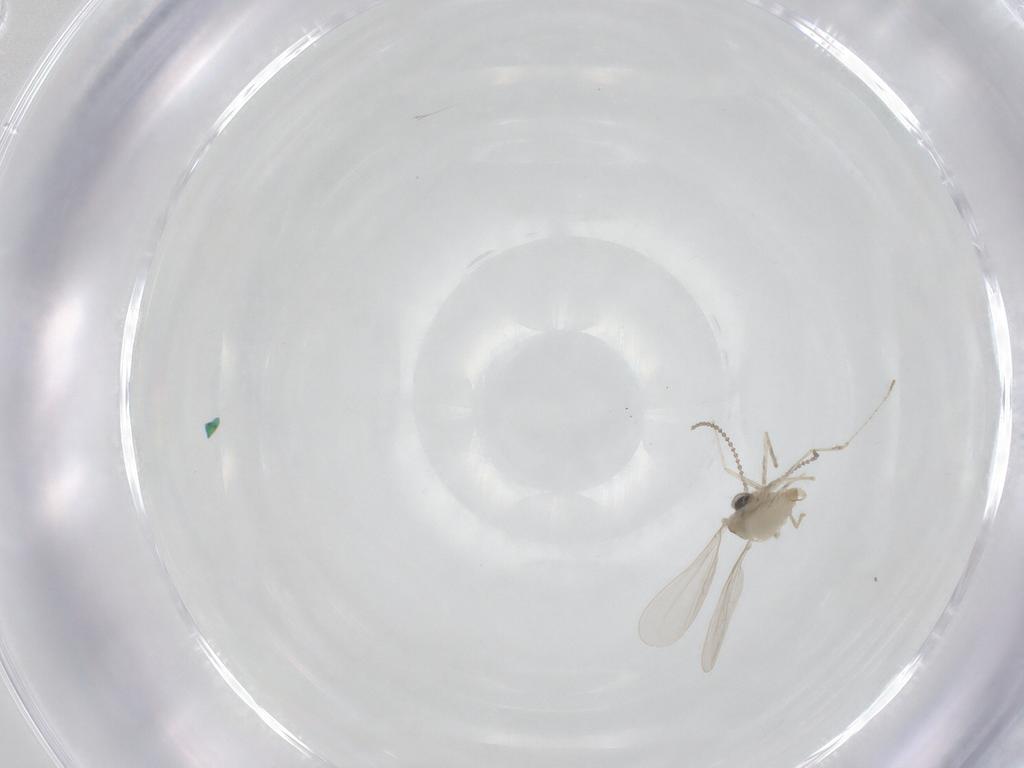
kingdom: Animalia
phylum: Arthropoda
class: Insecta
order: Diptera
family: Cecidomyiidae
